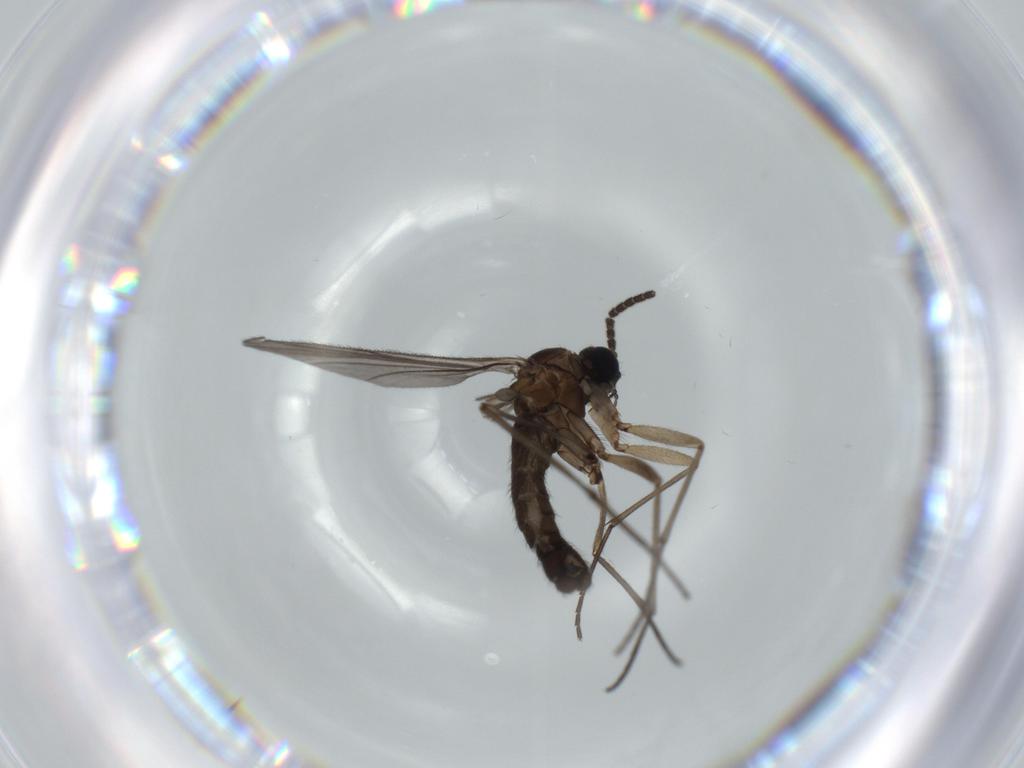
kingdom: Animalia
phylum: Arthropoda
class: Insecta
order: Diptera
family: Sciaridae
